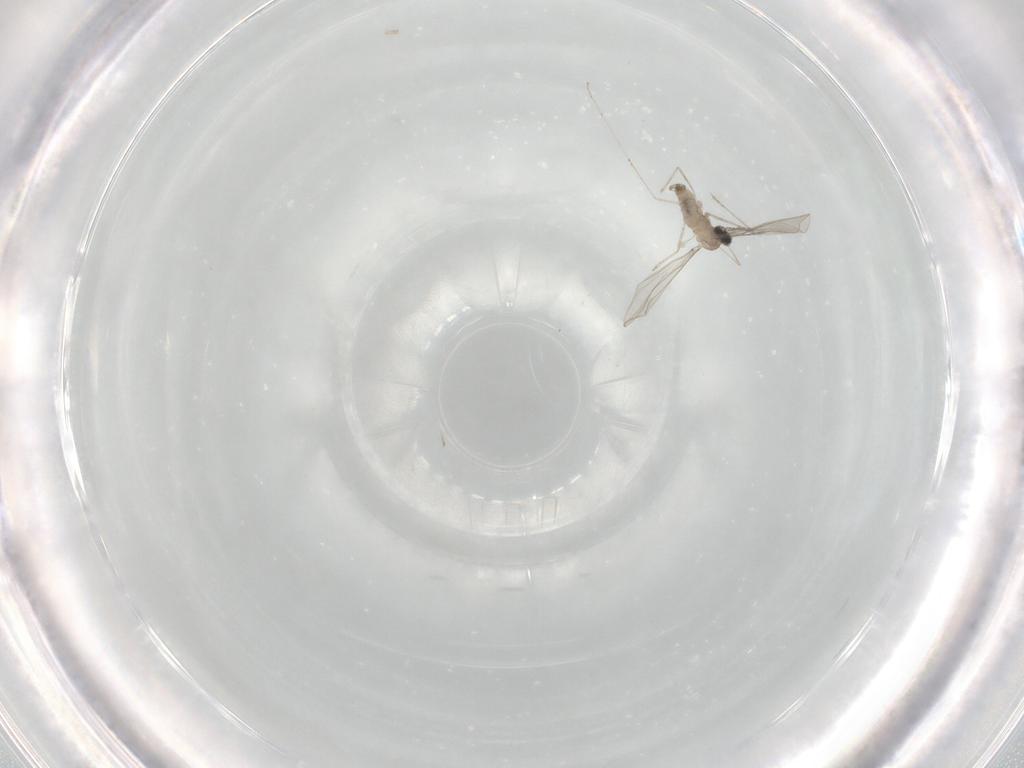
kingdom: Animalia
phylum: Arthropoda
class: Insecta
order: Diptera
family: Cecidomyiidae
